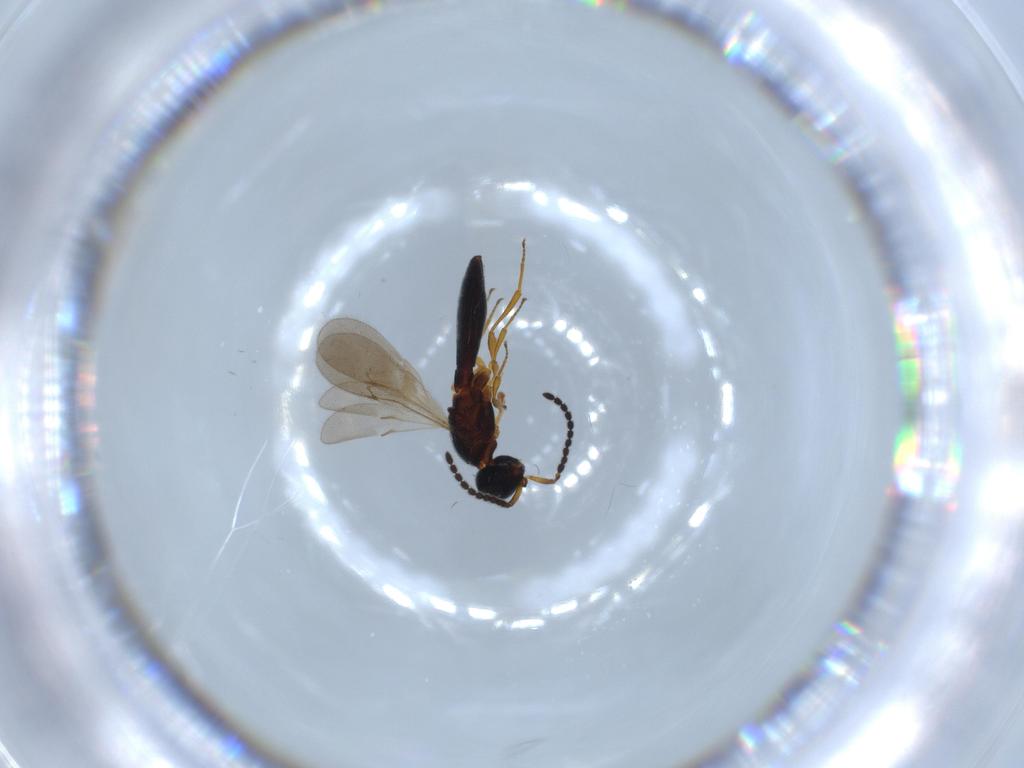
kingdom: Animalia
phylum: Arthropoda
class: Insecta
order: Hymenoptera
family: Scelionidae
